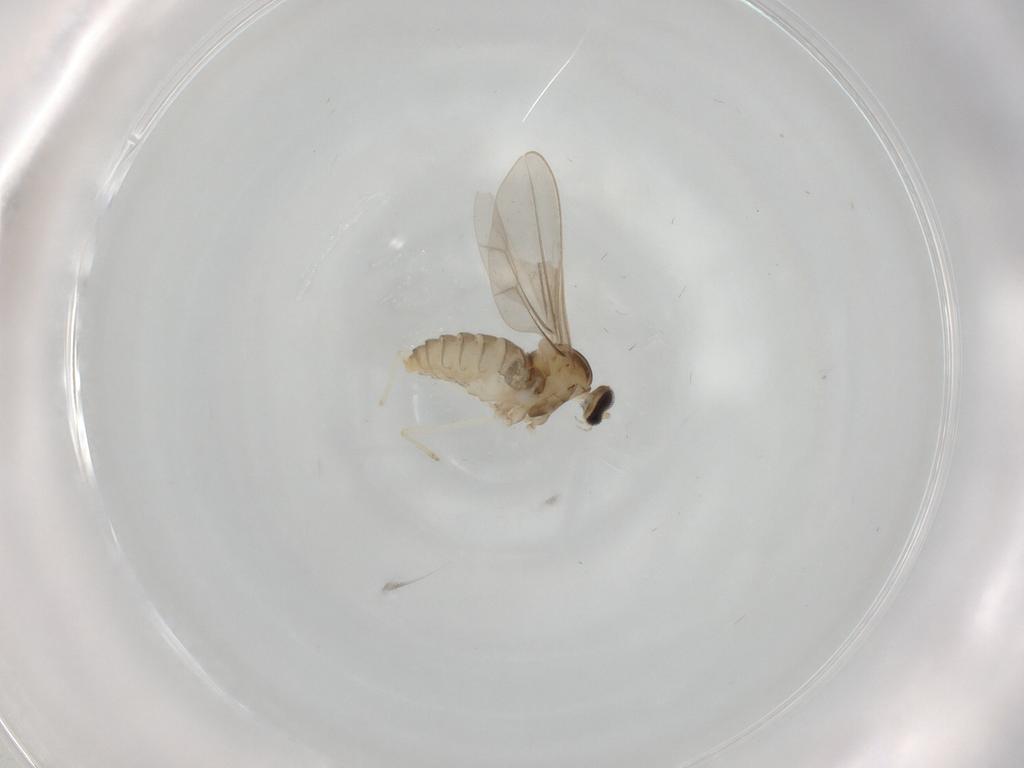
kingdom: Animalia
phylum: Arthropoda
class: Insecta
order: Diptera
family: Cecidomyiidae
